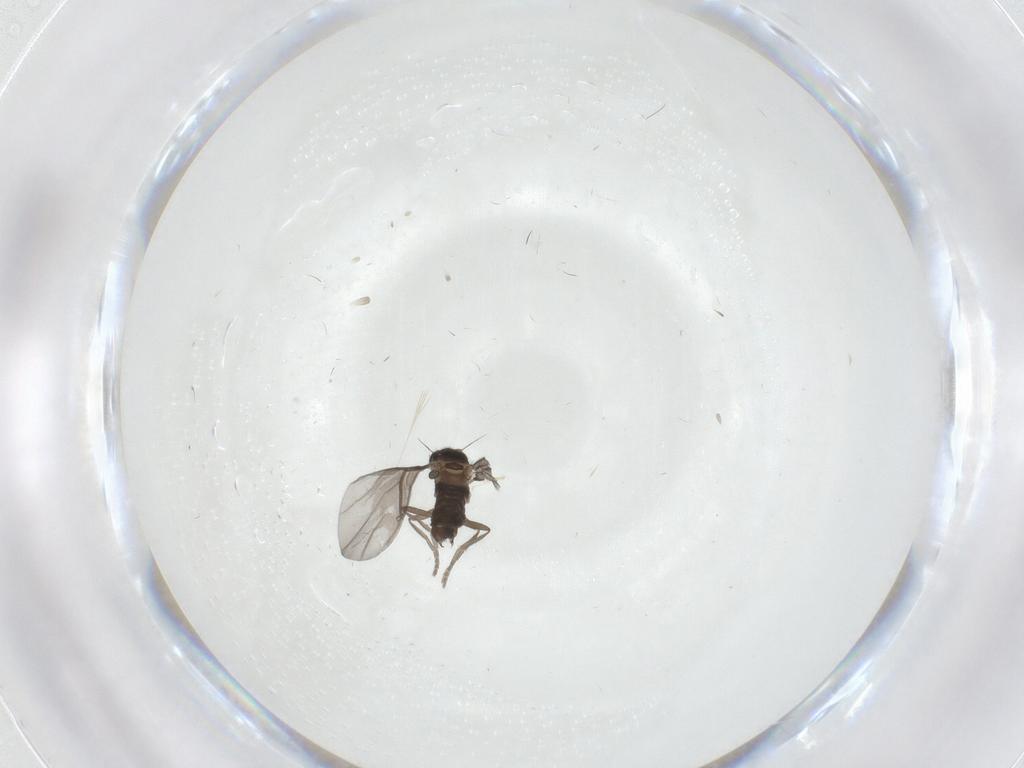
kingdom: Animalia
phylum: Arthropoda
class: Insecta
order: Diptera
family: Phoridae
